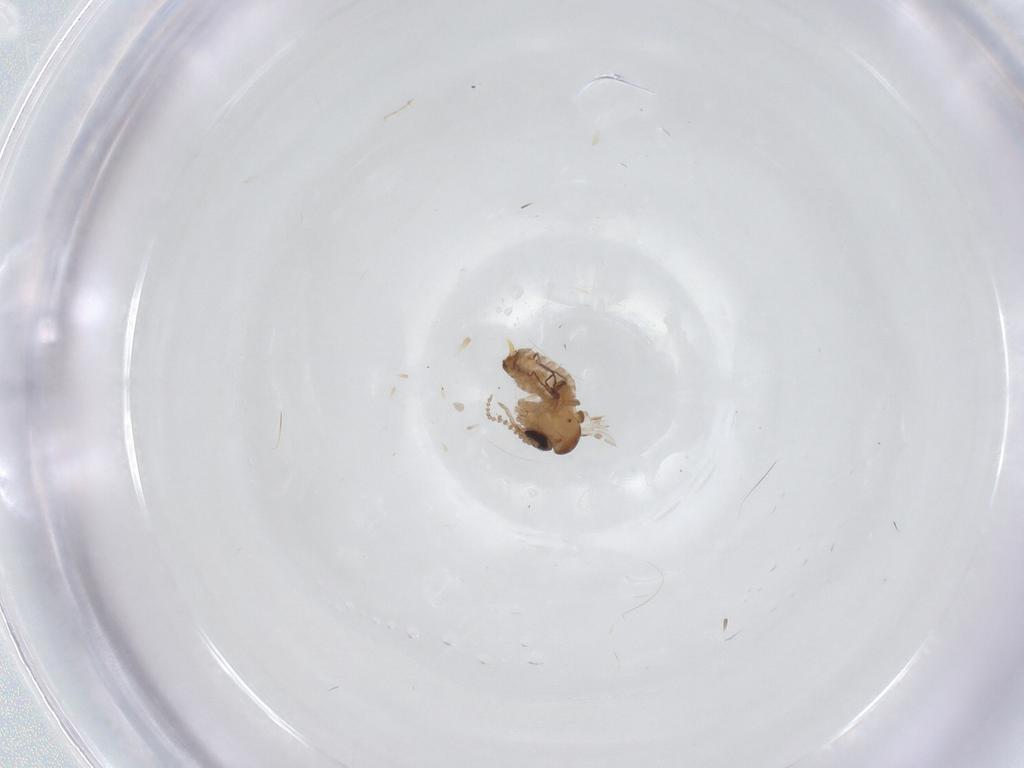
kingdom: Animalia
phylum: Arthropoda
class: Insecta
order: Diptera
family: Psychodidae
